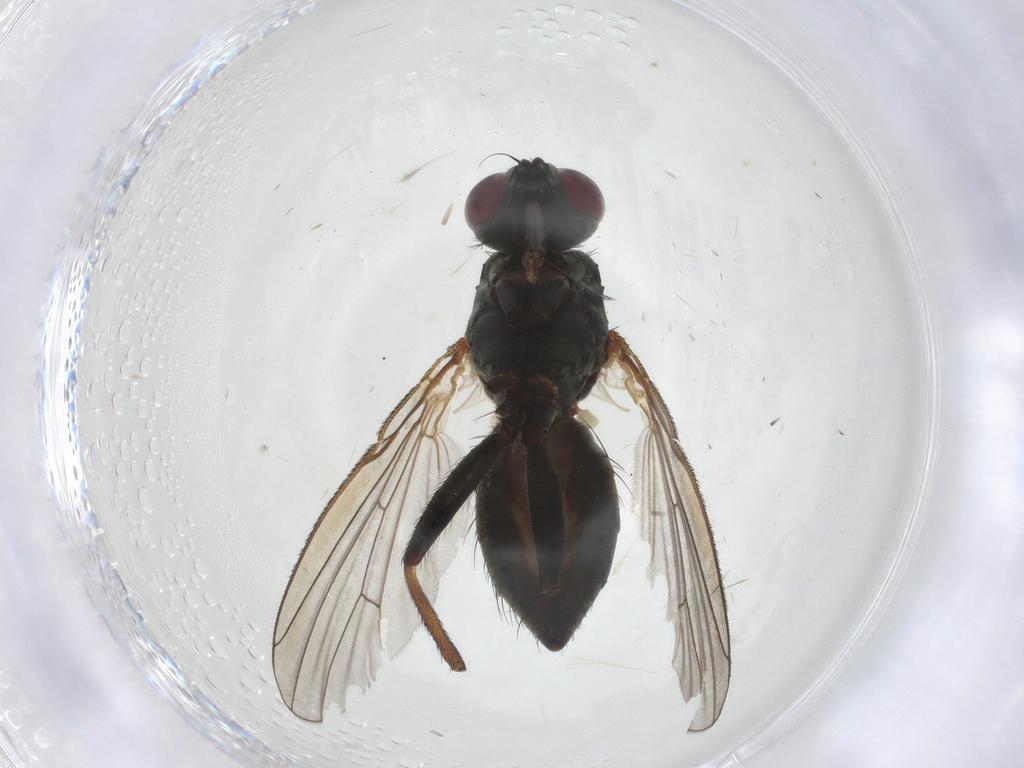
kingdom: Animalia
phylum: Arthropoda
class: Insecta
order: Diptera
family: Muscidae
